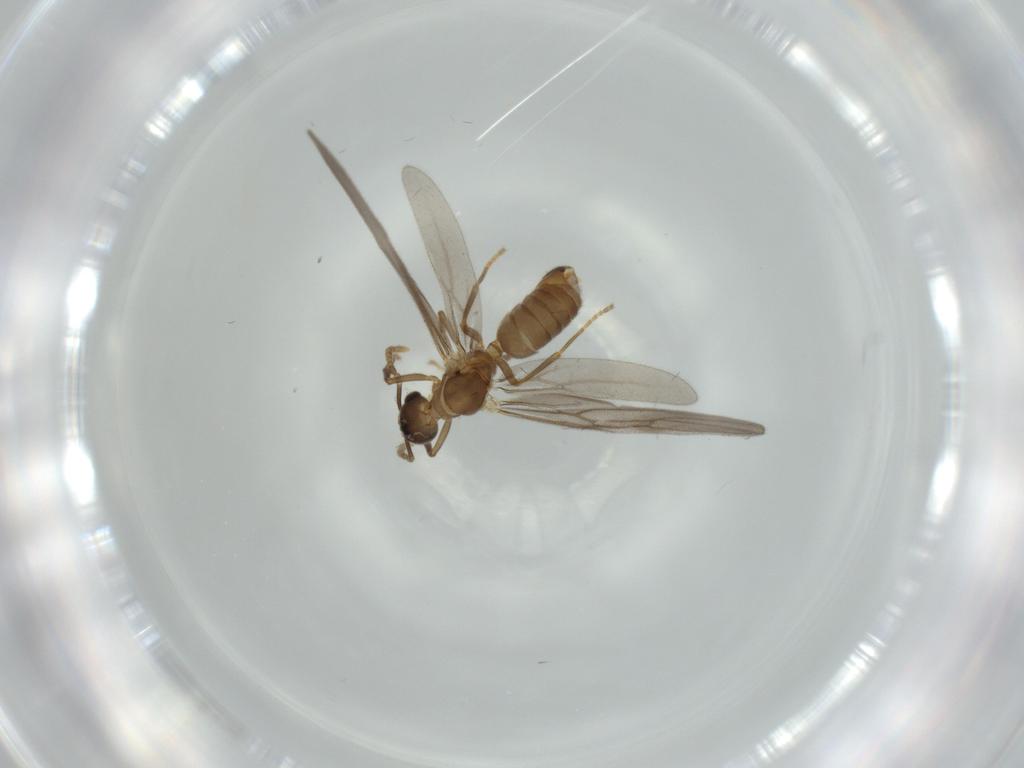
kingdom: Animalia
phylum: Arthropoda
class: Insecta
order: Hymenoptera
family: Formicidae
